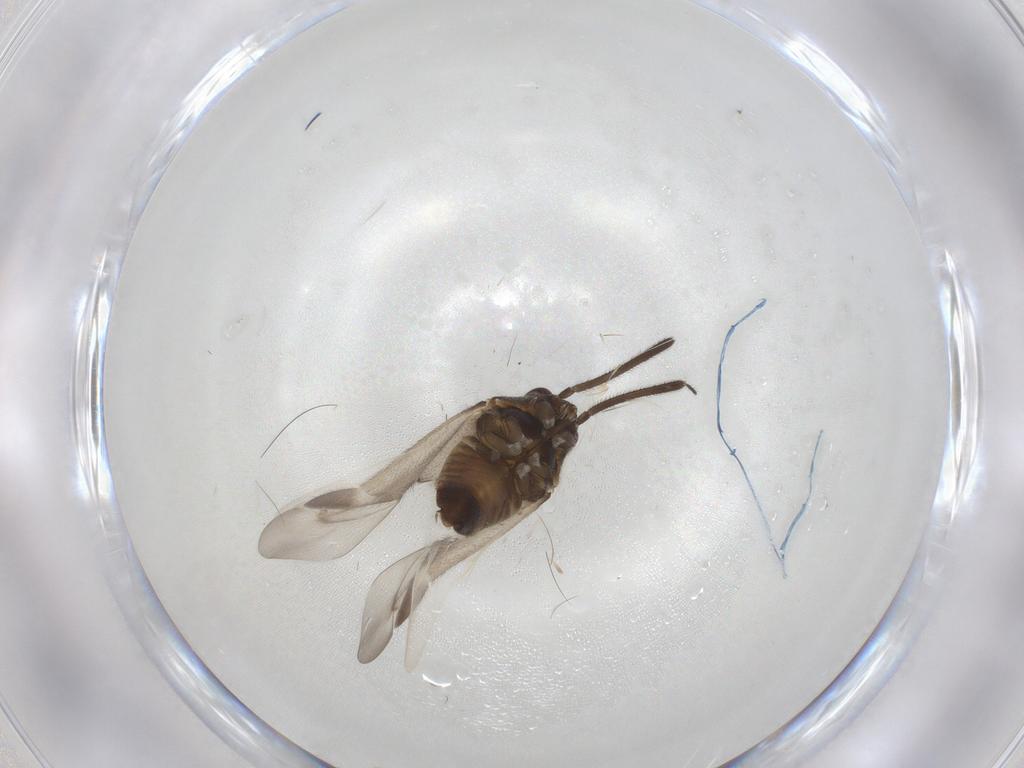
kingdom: Animalia
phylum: Arthropoda
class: Insecta
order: Hemiptera
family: Miridae
